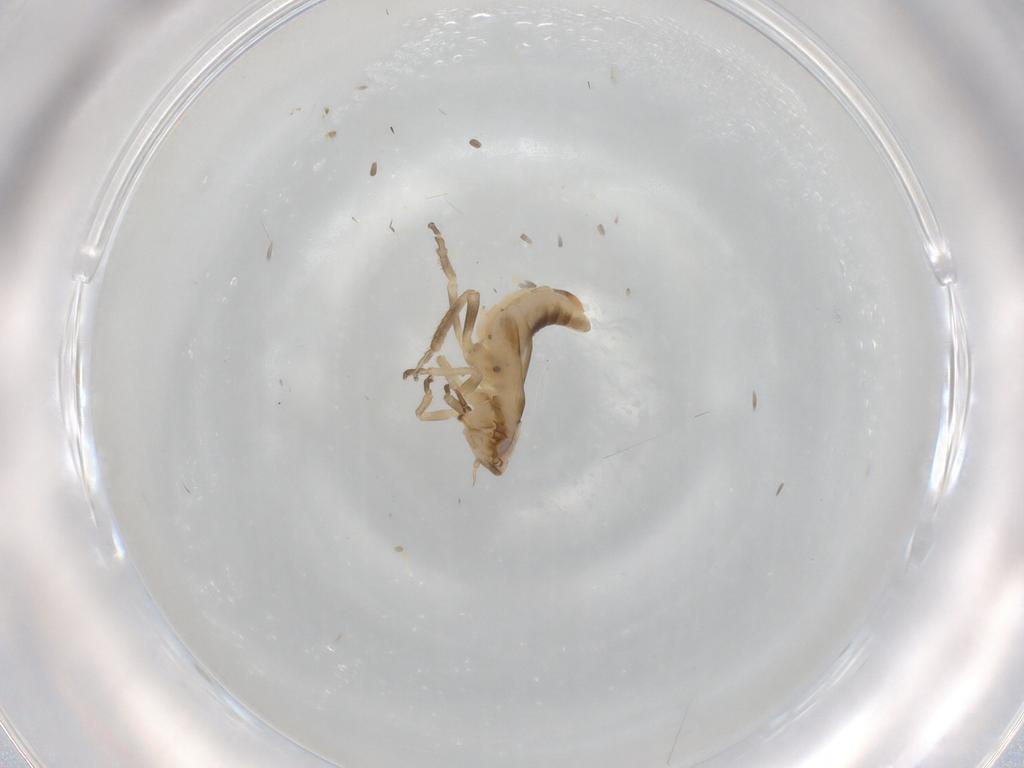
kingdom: Animalia
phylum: Arthropoda
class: Insecta
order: Hemiptera
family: Cicadellidae
